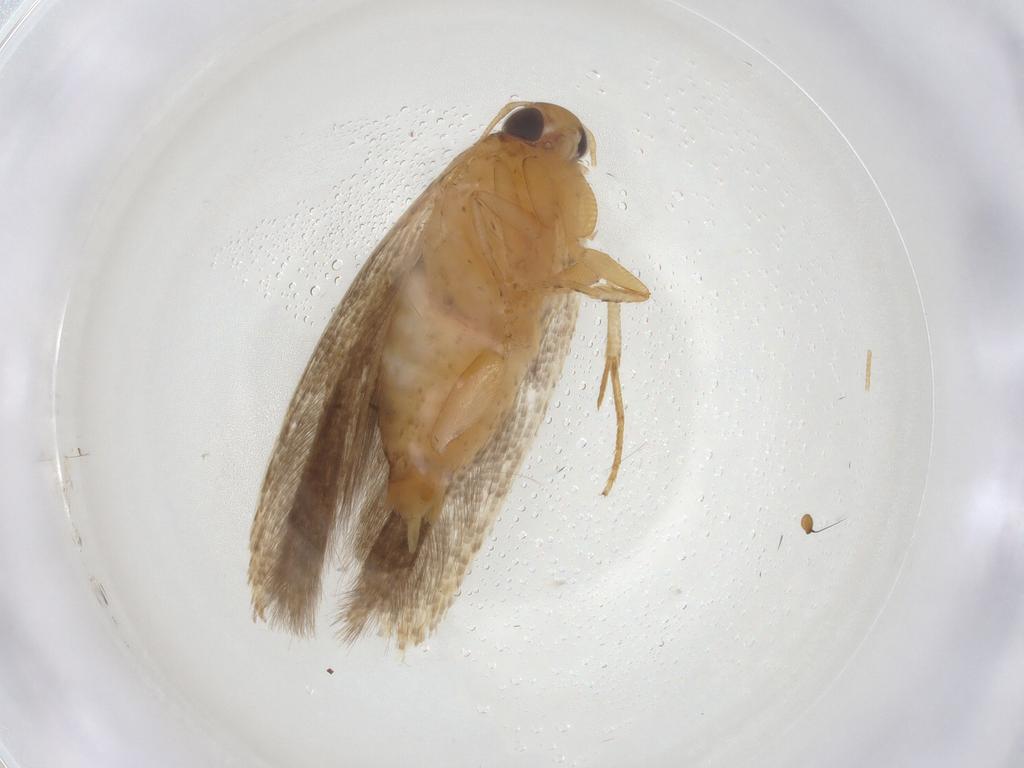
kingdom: Animalia
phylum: Arthropoda
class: Insecta
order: Lepidoptera
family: Gelechiidae
